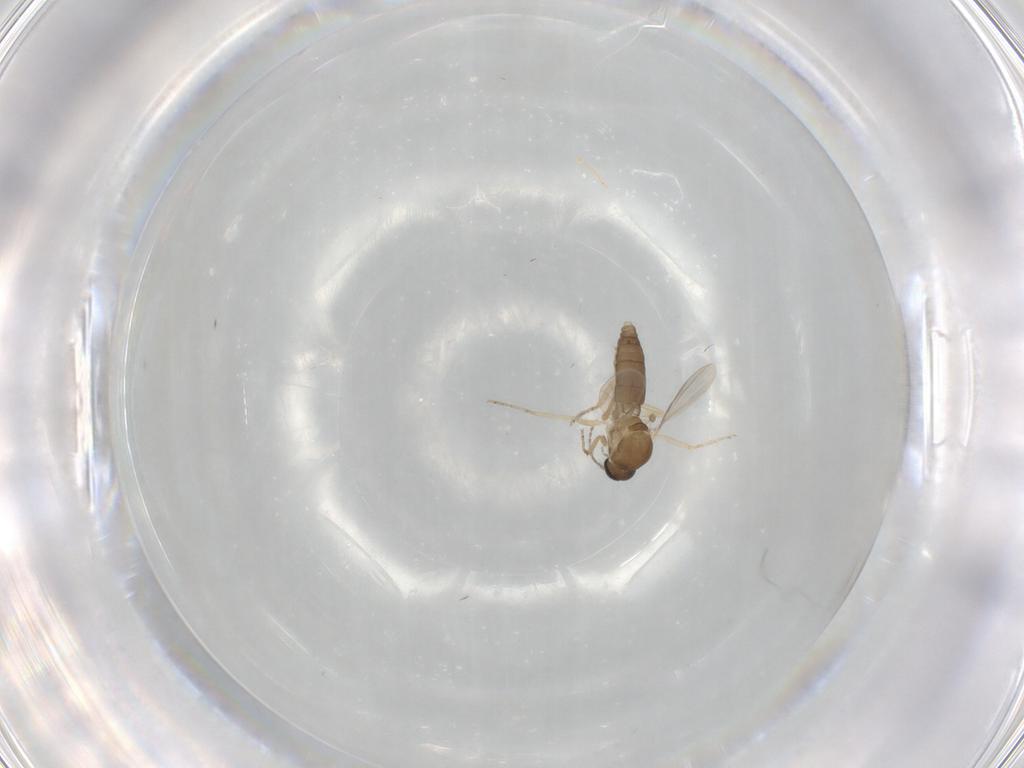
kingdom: Animalia
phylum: Arthropoda
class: Insecta
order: Diptera
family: Ceratopogonidae
